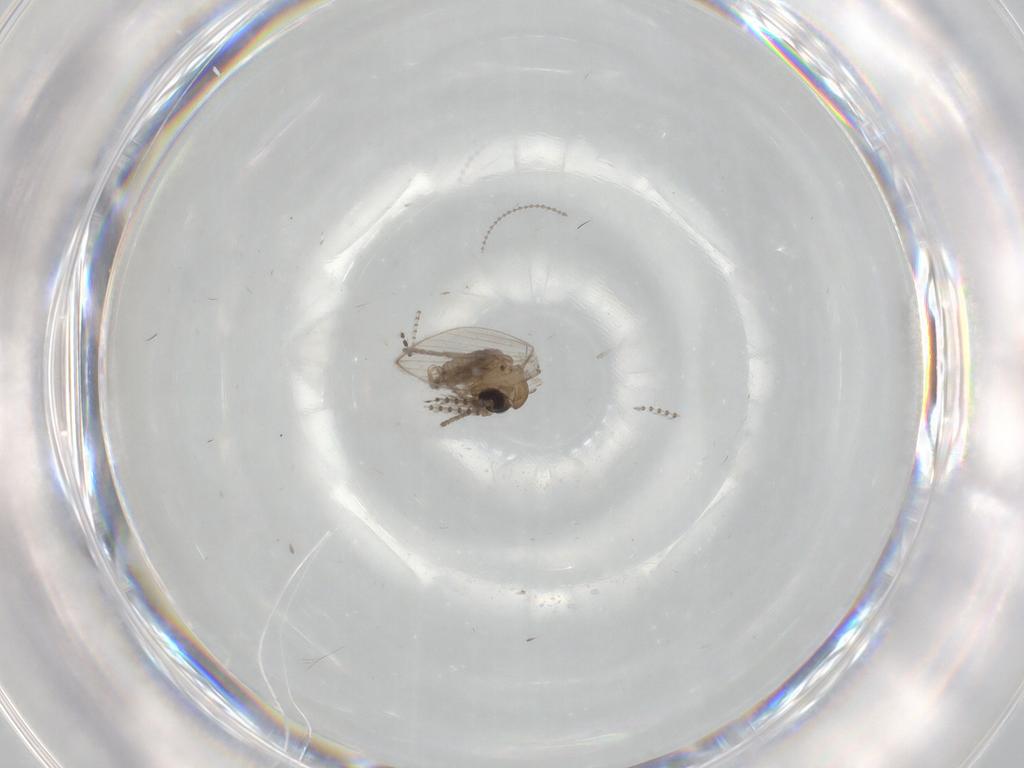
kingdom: Animalia
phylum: Arthropoda
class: Insecta
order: Diptera
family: Psychodidae
